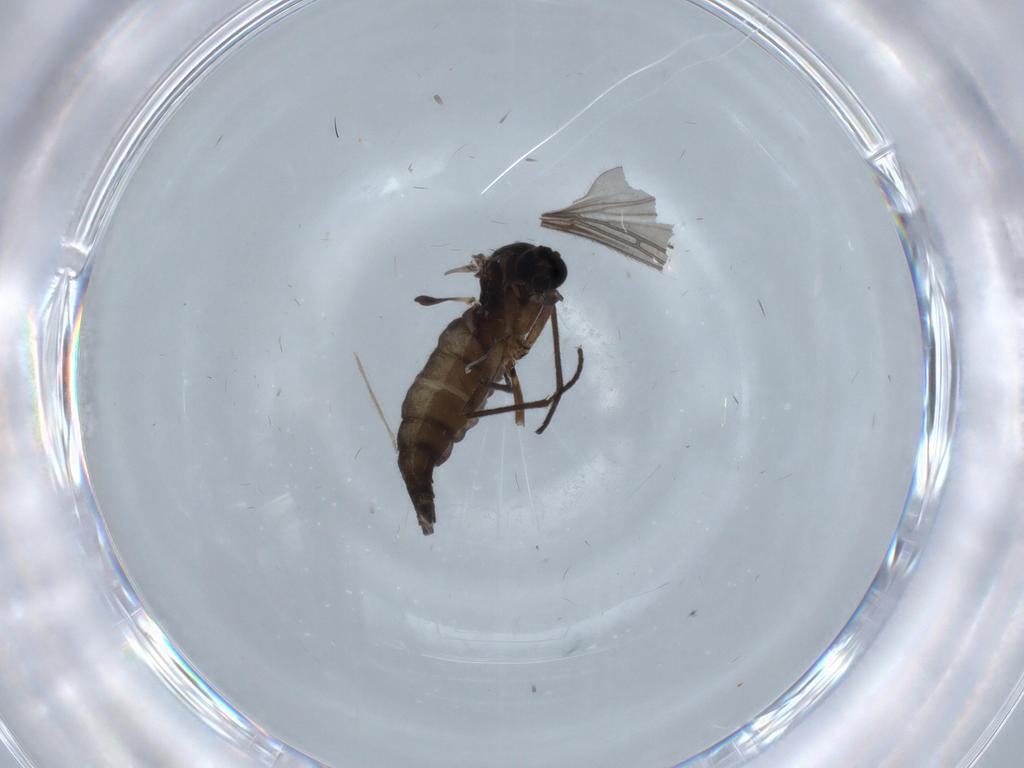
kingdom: Animalia
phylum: Arthropoda
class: Insecta
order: Diptera
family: Sciaridae
